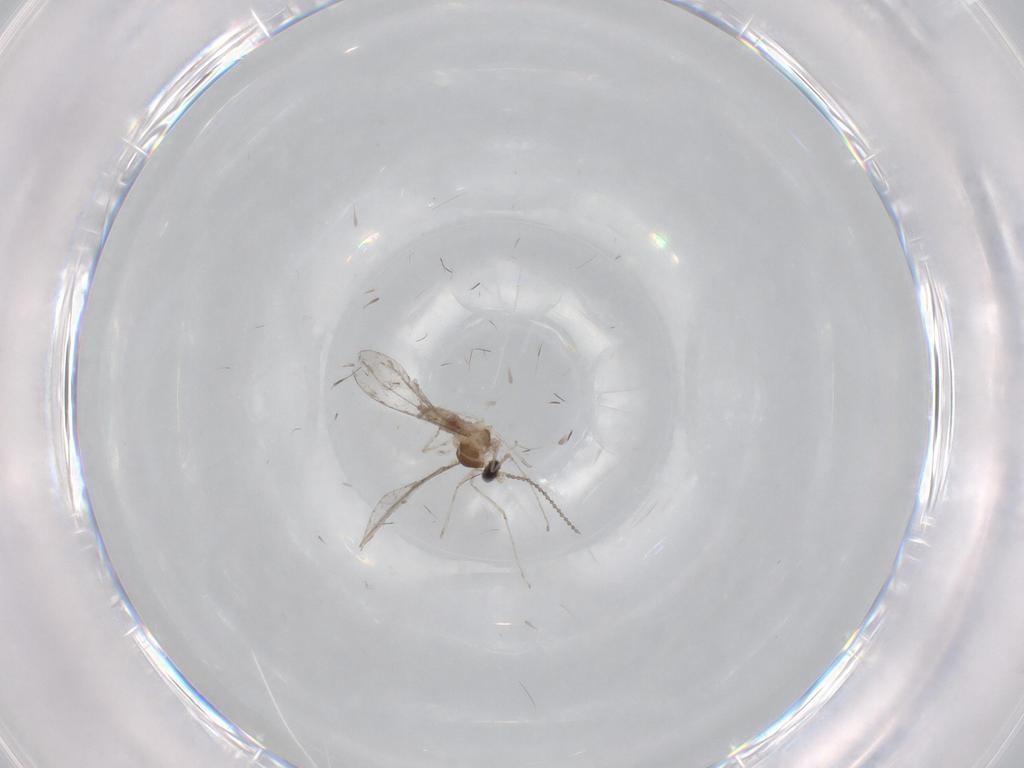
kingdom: Animalia
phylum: Arthropoda
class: Insecta
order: Diptera
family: Cecidomyiidae
